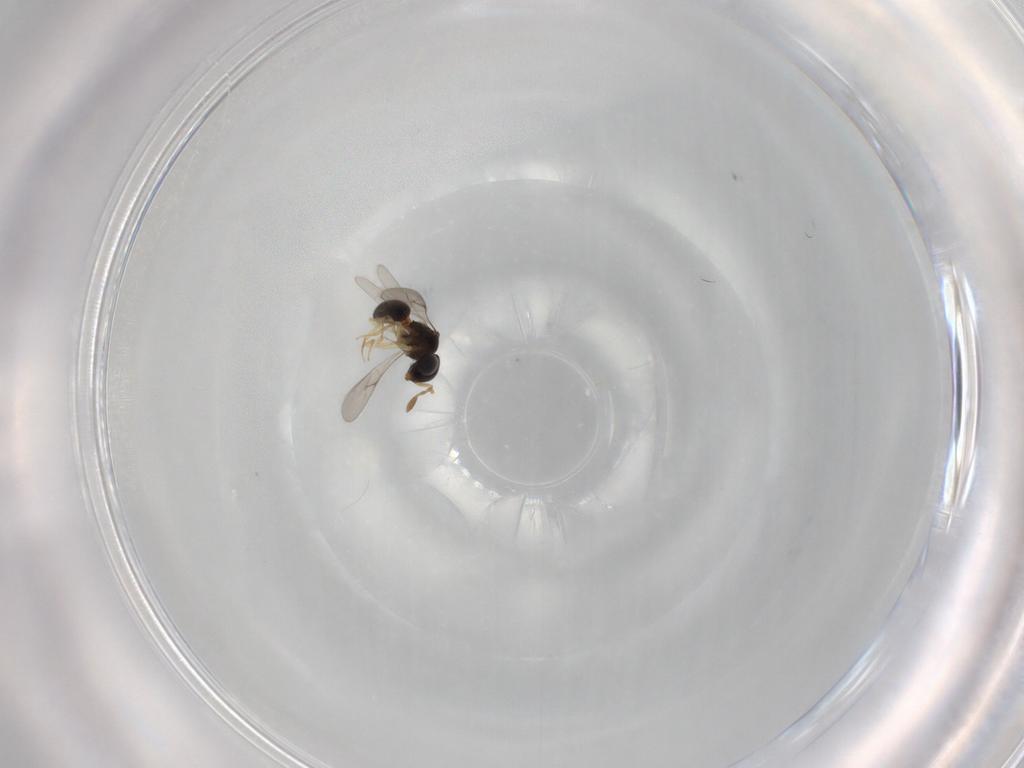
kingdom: Animalia
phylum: Arthropoda
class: Insecta
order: Hymenoptera
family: Scelionidae
